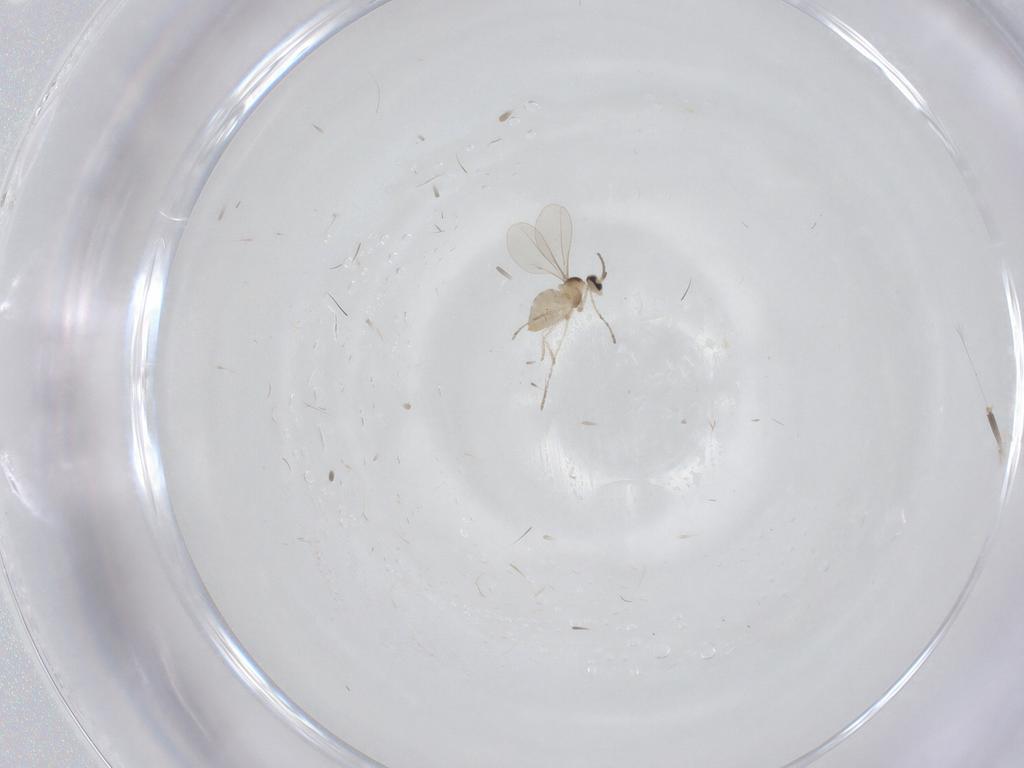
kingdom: Animalia
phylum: Arthropoda
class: Insecta
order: Diptera
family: Cecidomyiidae
